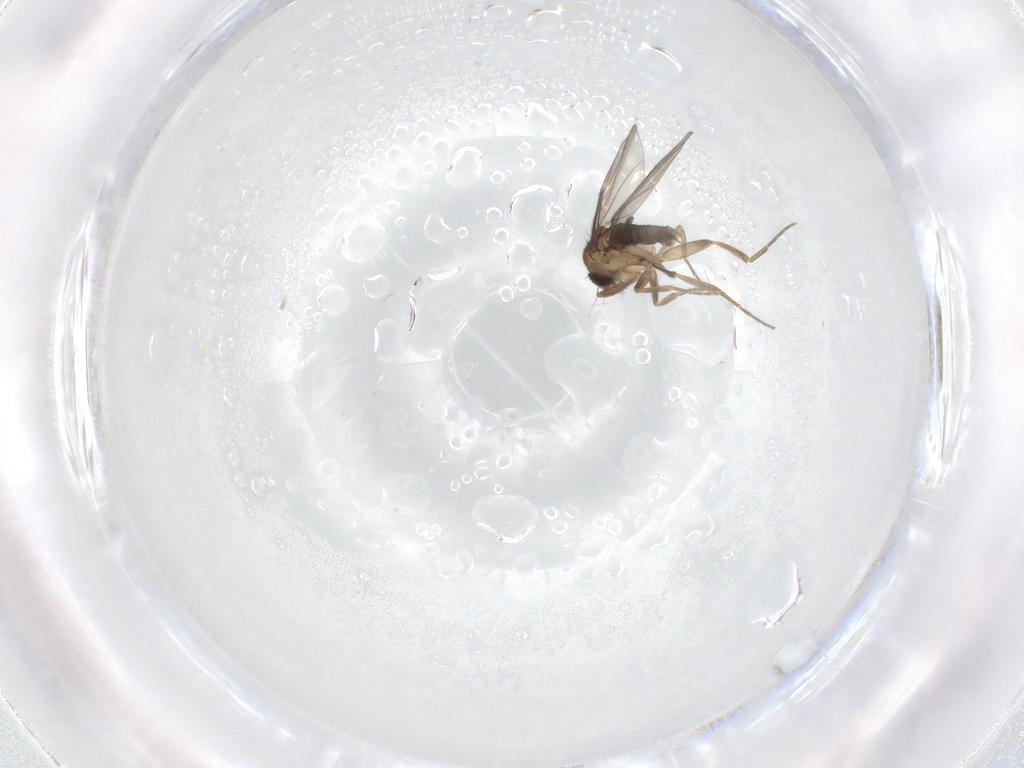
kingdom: Animalia
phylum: Arthropoda
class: Insecta
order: Diptera
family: Phoridae
